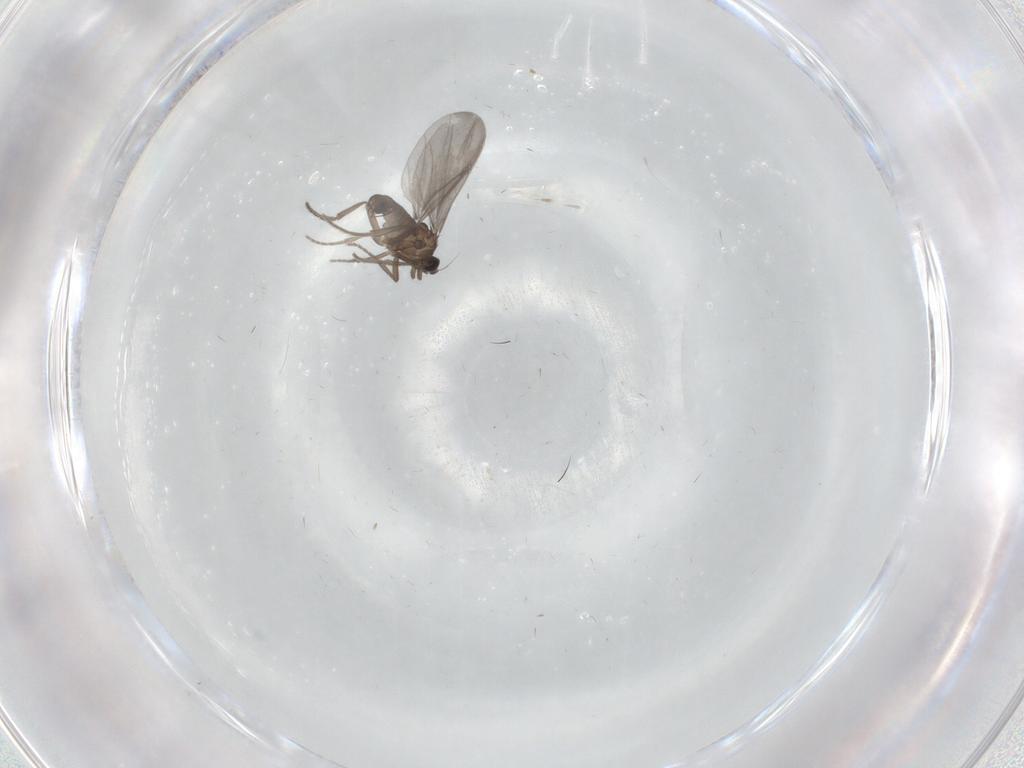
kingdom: Animalia
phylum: Arthropoda
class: Insecta
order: Diptera
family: Phoridae
